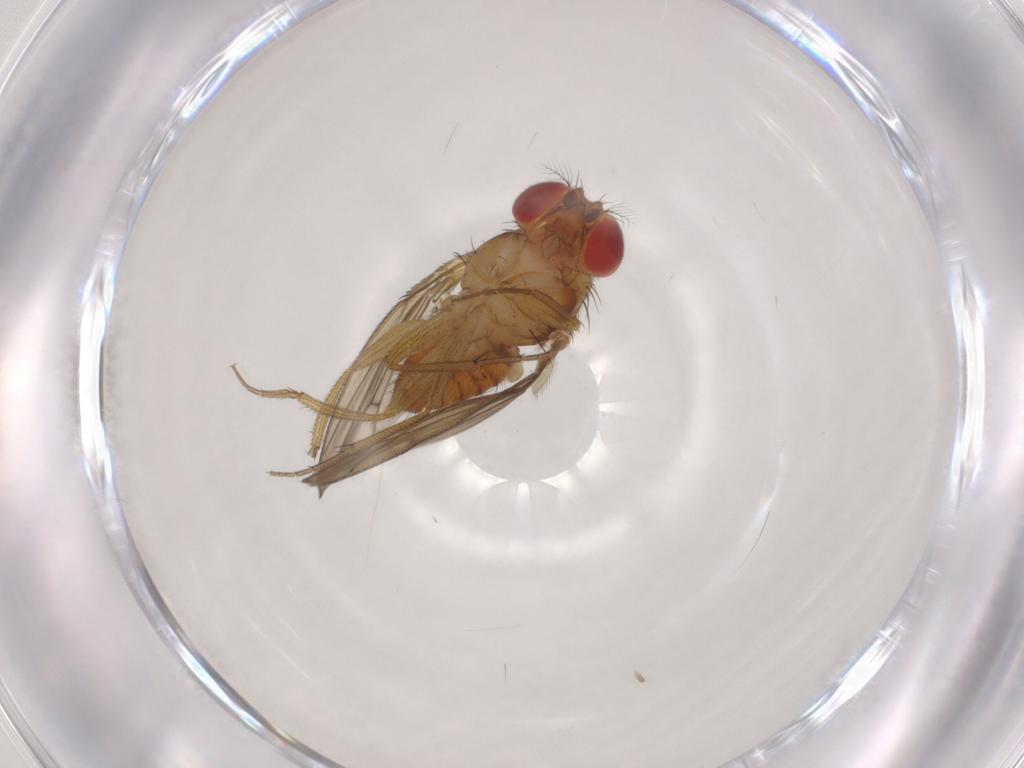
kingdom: Animalia
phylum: Arthropoda
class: Insecta
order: Diptera
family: Drosophilidae
